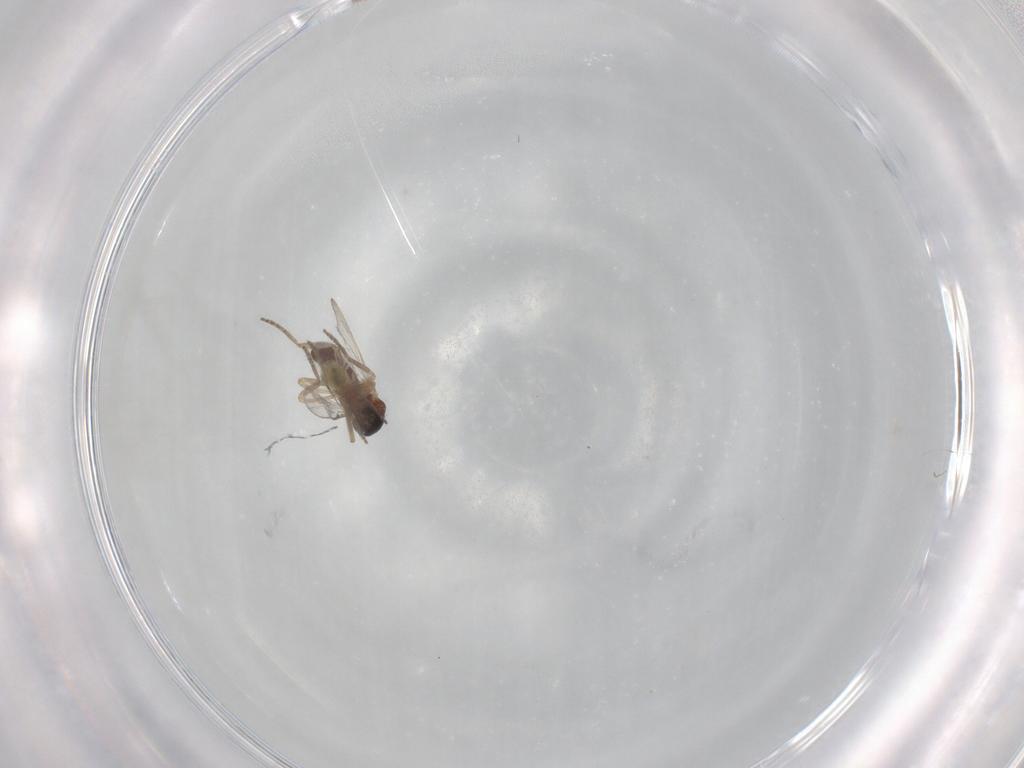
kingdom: Animalia
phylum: Arthropoda
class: Insecta
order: Diptera
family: Ceratopogonidae
